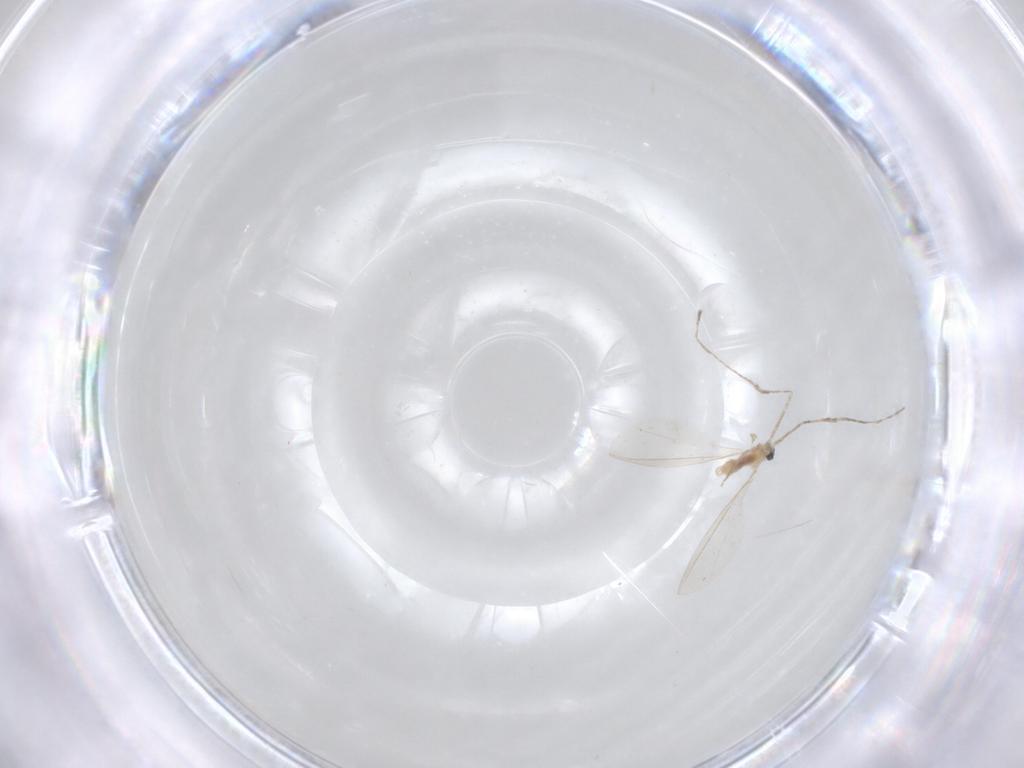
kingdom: Animalia
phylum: Arthropoda
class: Insecta
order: Diptera
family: Cecidomyiidae
